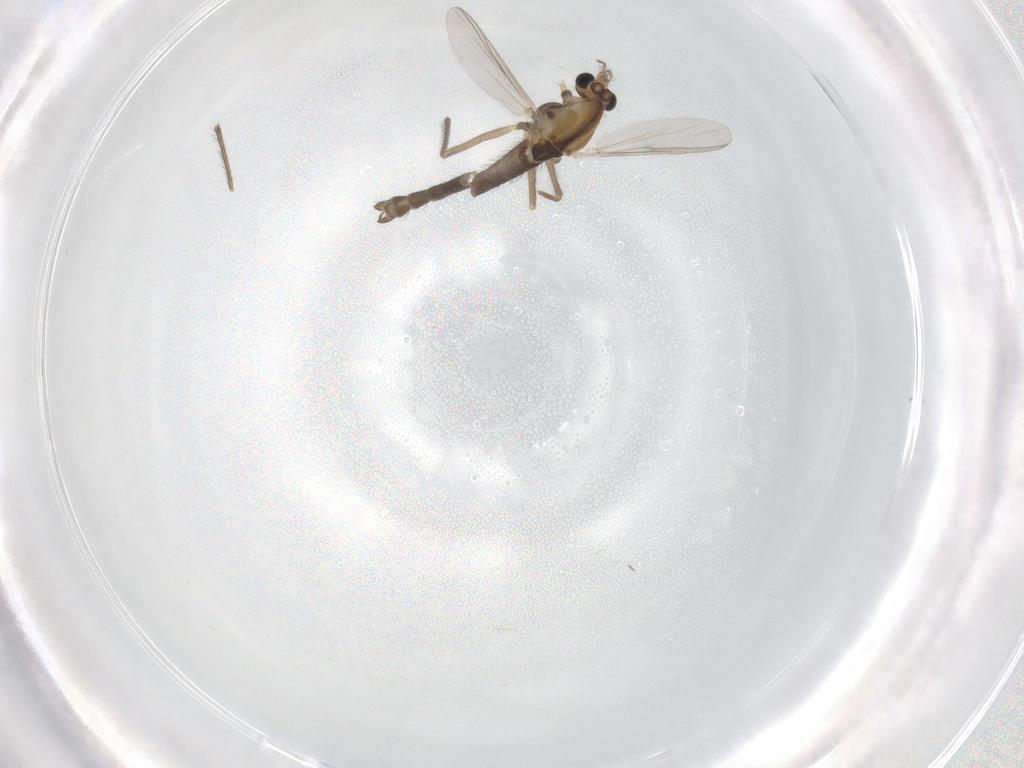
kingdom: Animalia
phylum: Arthropoda
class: Insecta
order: Diptera
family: Chironomidae
